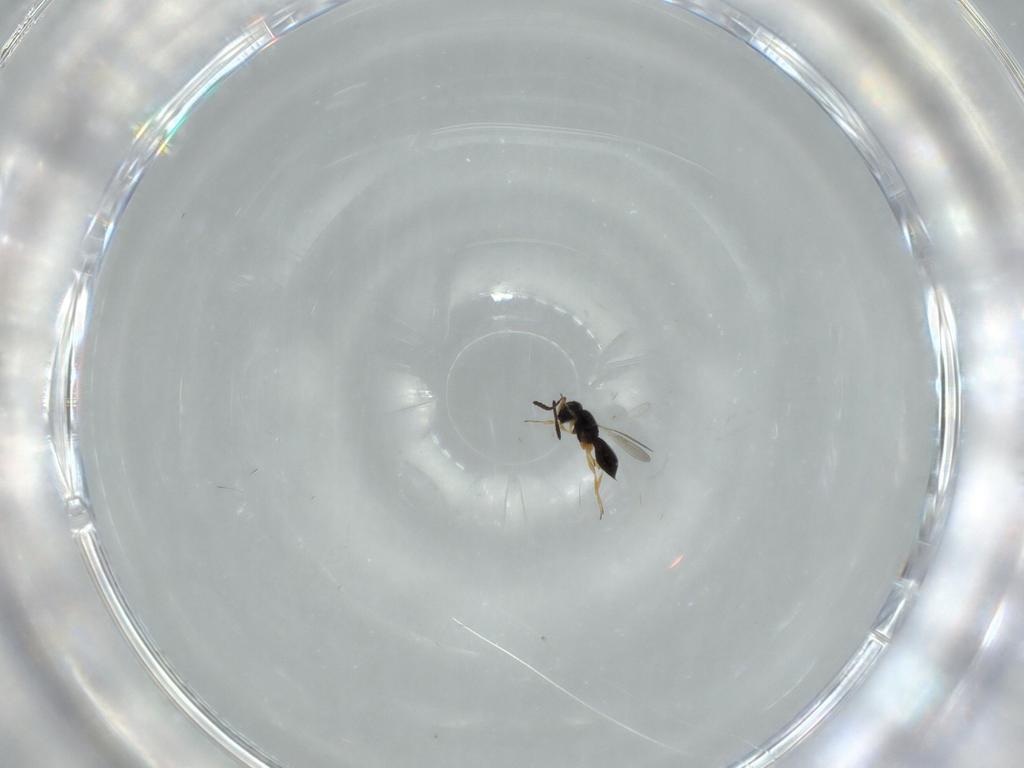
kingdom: Animalia
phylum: Arthropoda
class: Insecta
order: Hymenoptera
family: Scelionidae
